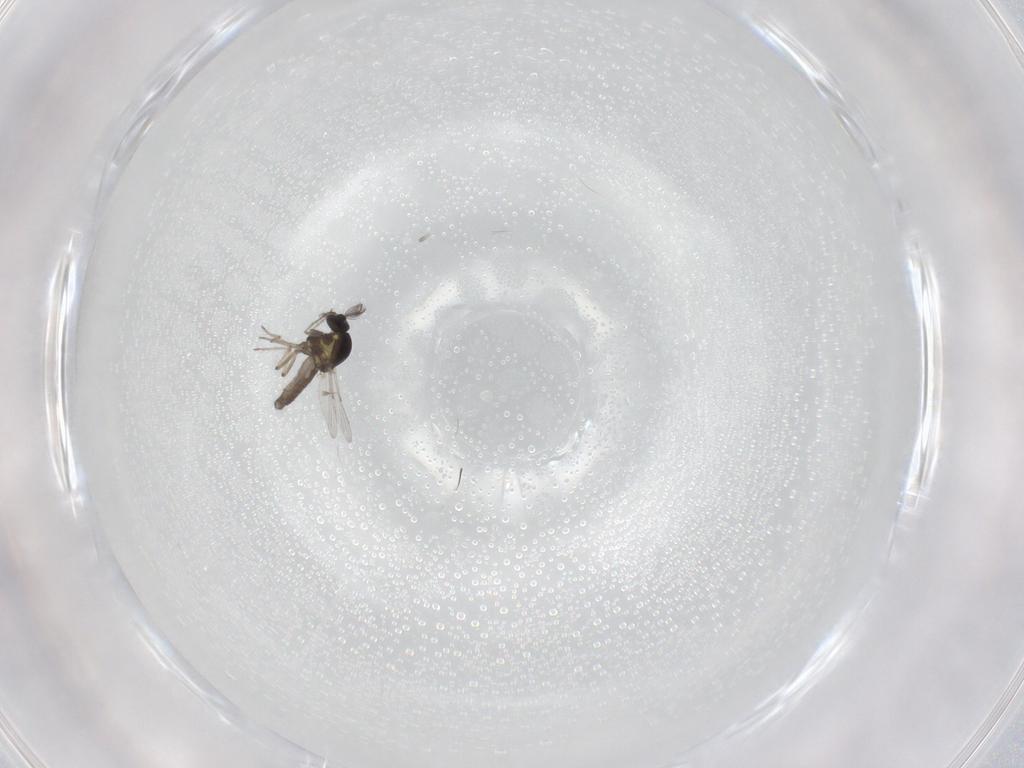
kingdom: Animalia
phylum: Arthropoda
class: Insecta
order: Diptera
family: Ceratopogonidae
